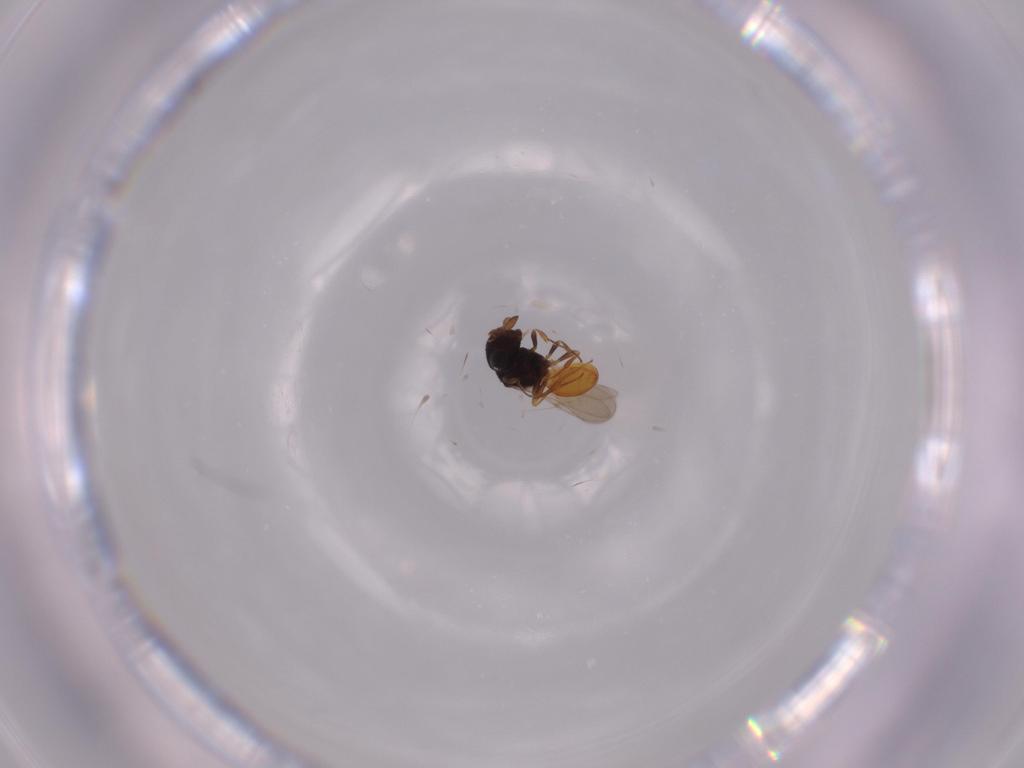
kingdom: Animalia
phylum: Arthropoda
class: Insecta
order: Hymenoptera
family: Scelionidae
